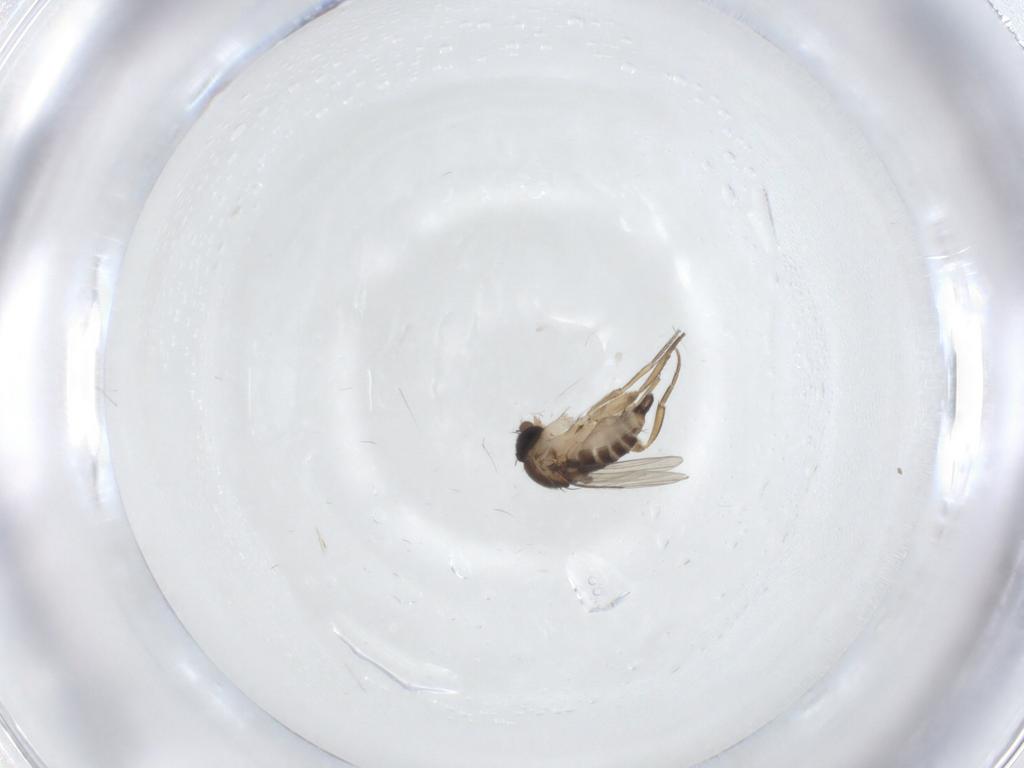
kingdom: Animalia
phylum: Arthropoda
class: Insecta
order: Diptera
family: Phoridae
